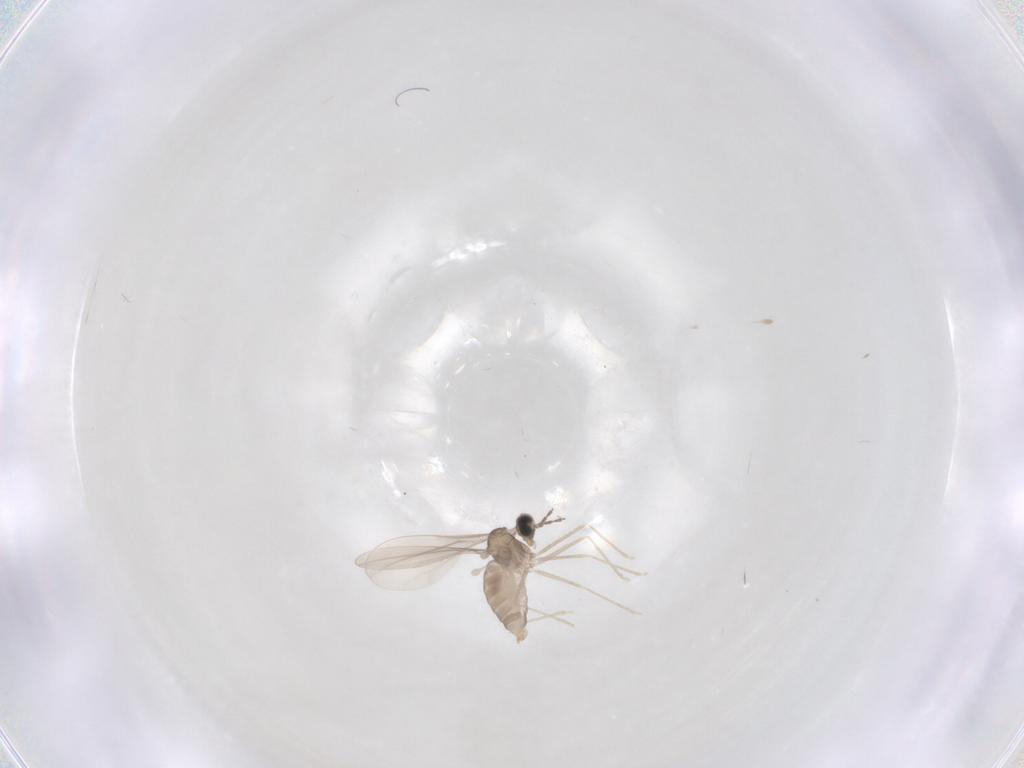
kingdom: Animalia
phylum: Arthropoda
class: Insecta
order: Diptera
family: Cecidomyiidae
